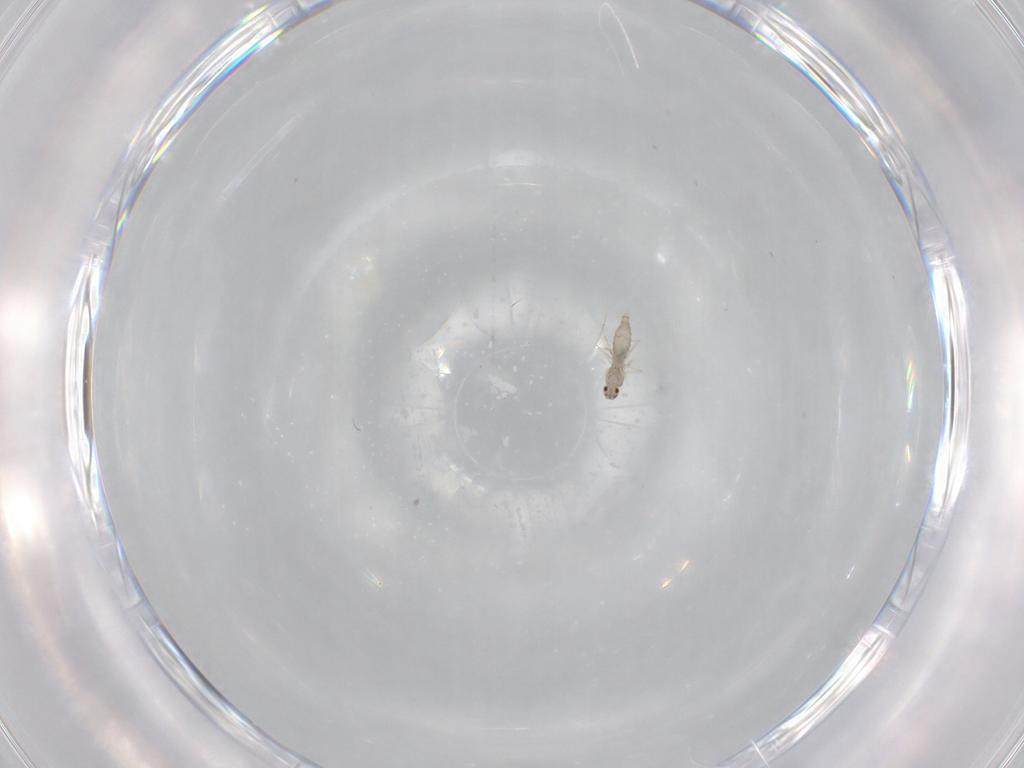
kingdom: Animalia
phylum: Arthropoda
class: Insecta
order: Diptera
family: Cecidomyiidae
